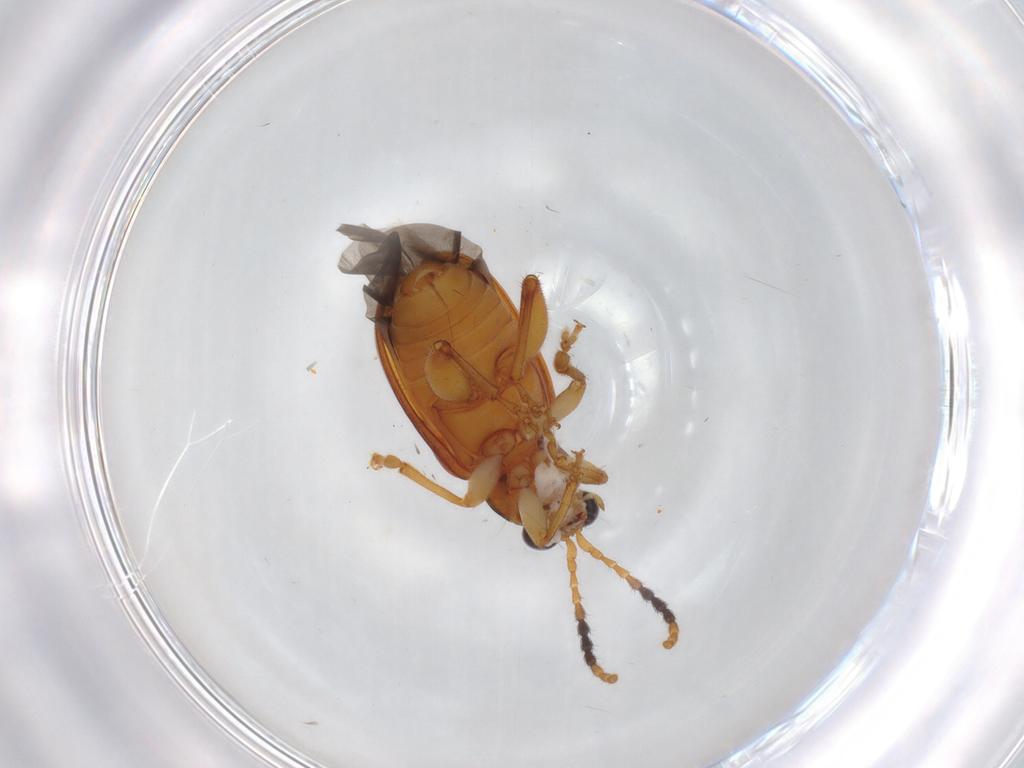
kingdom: Animalia
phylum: Arthropoda
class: Insecta
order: Coleoptera
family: Chrysomelidae
